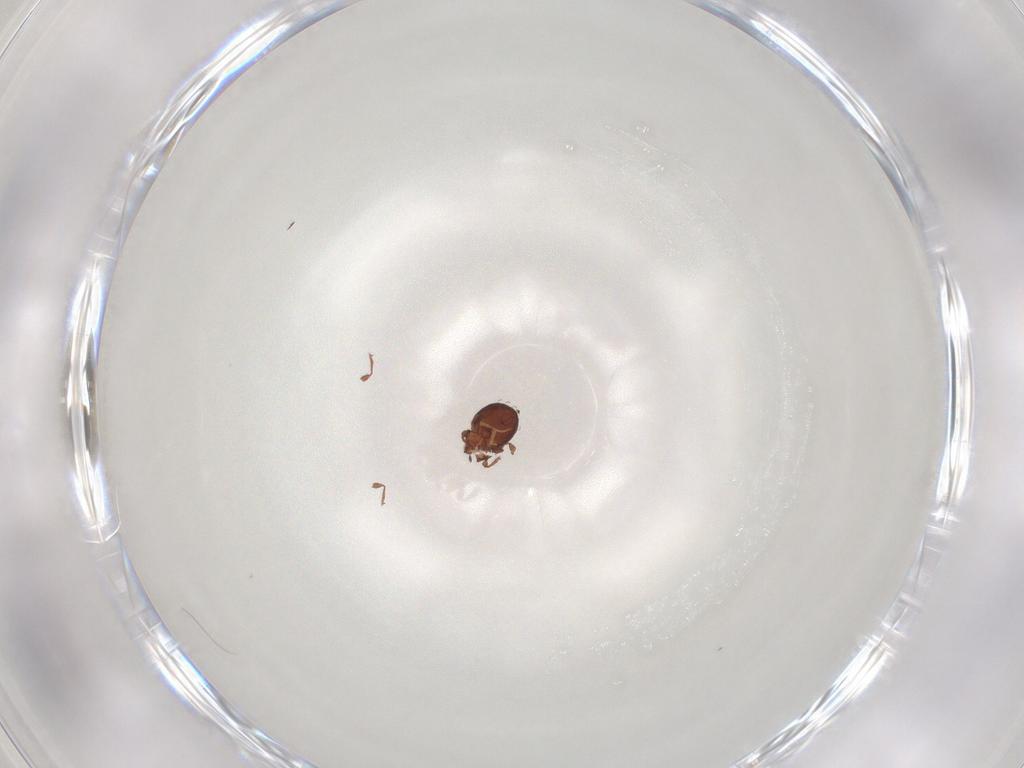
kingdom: Animalia
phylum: Arthropoda
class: Arachnida
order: Sarcoptiformes
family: Scheloribatidae
